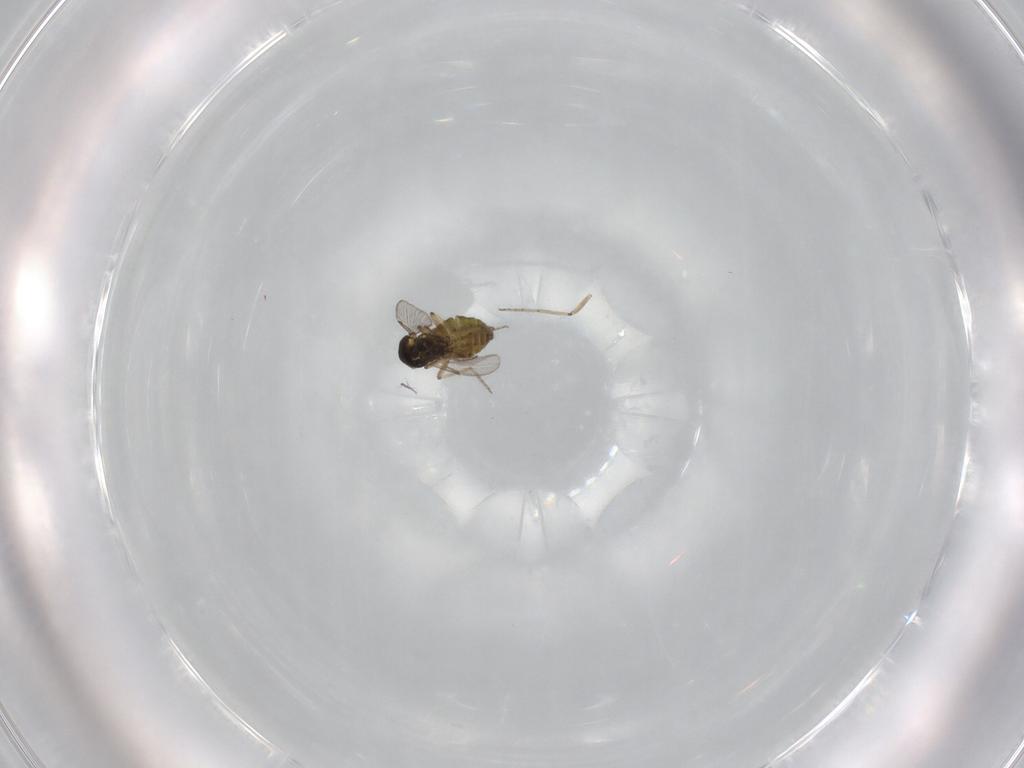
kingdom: Animalia
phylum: Arthropoda
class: Insecta
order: Diptera
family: Ceratopogonidae
